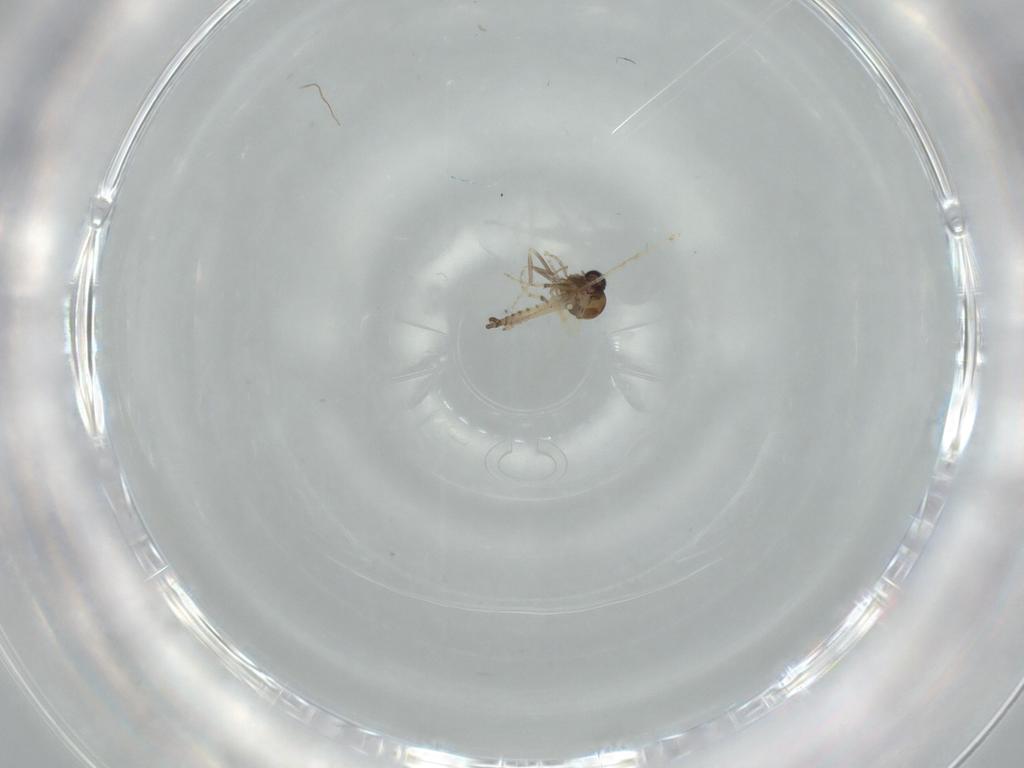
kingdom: Animalia
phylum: Arthropoda
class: Insecta
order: Diptera
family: Cecidomyiidae
